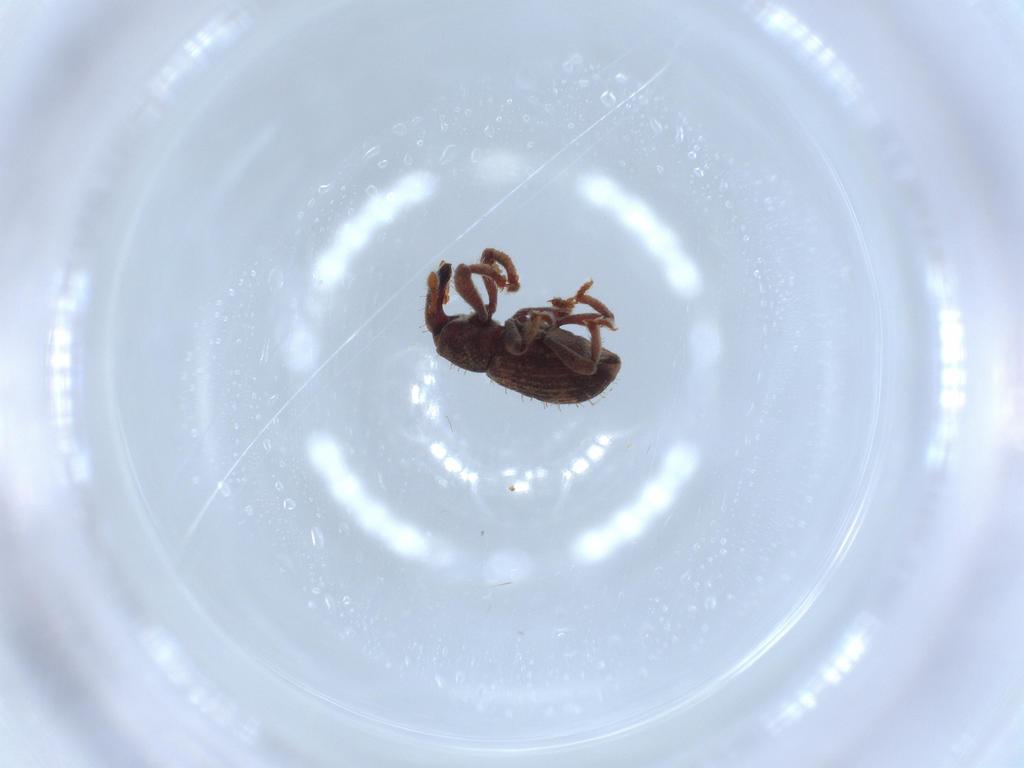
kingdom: Animalia
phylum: Arthropoda
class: Insecta
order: Coleoptera
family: Curculionidae
